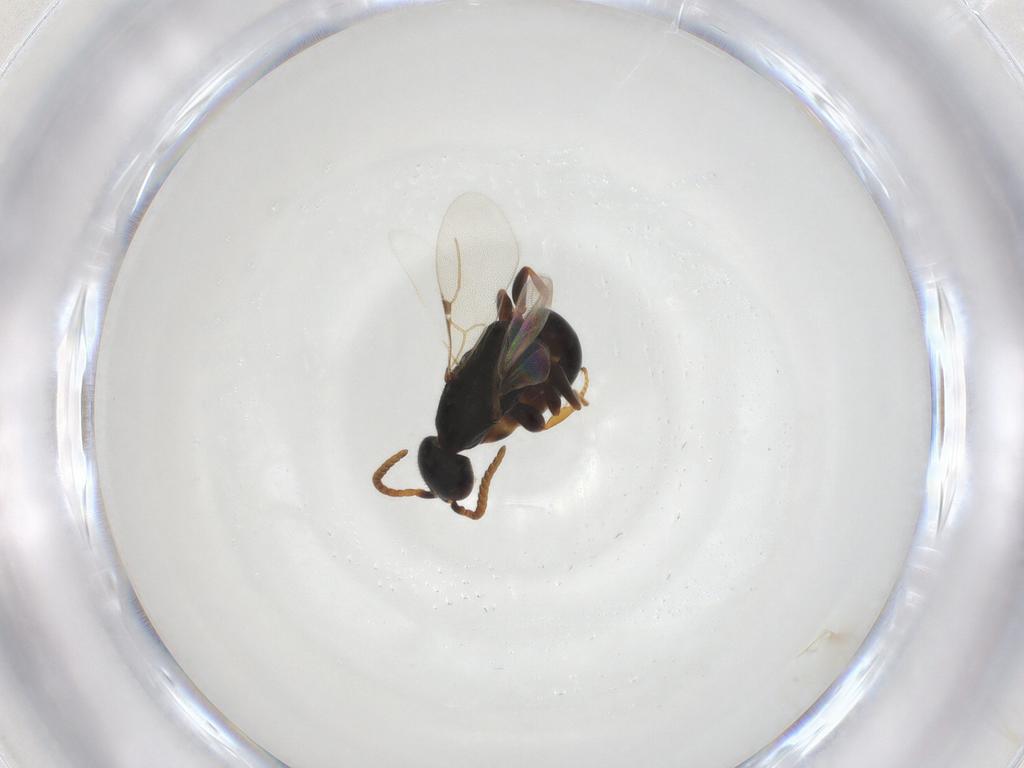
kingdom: Animalia
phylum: Arthropoda
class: Insecta
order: Hymenoptera
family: Bethylidae
